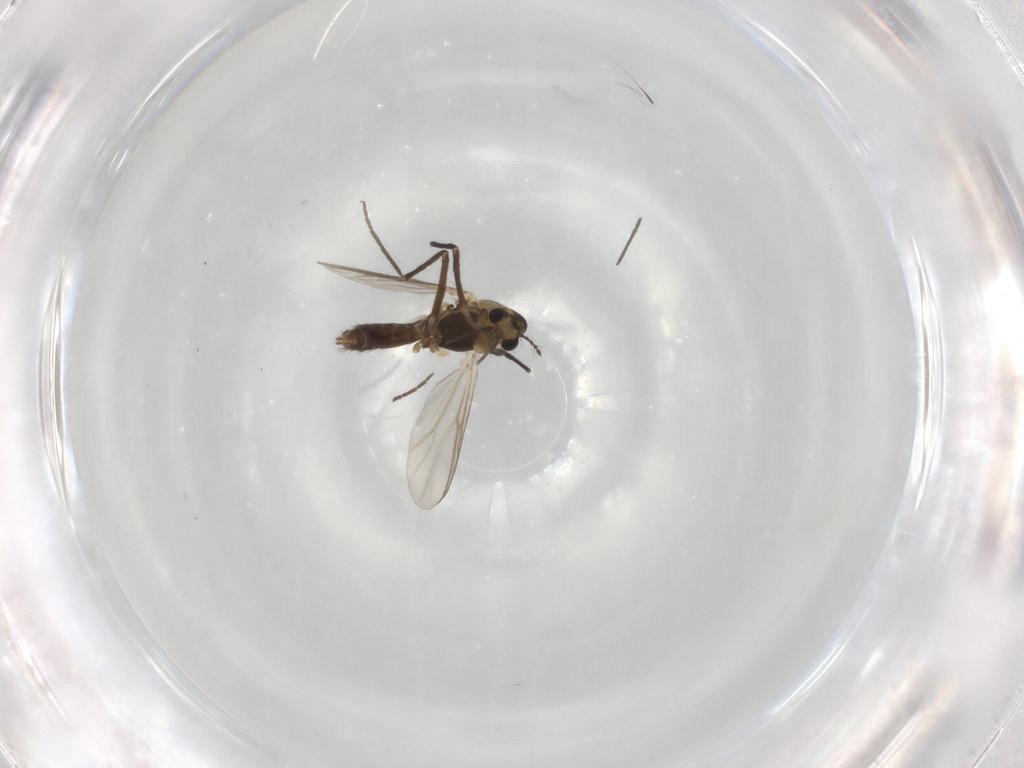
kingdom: Animalia
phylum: Arthropoda
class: Insecta
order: Diptera
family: Chironomidae
